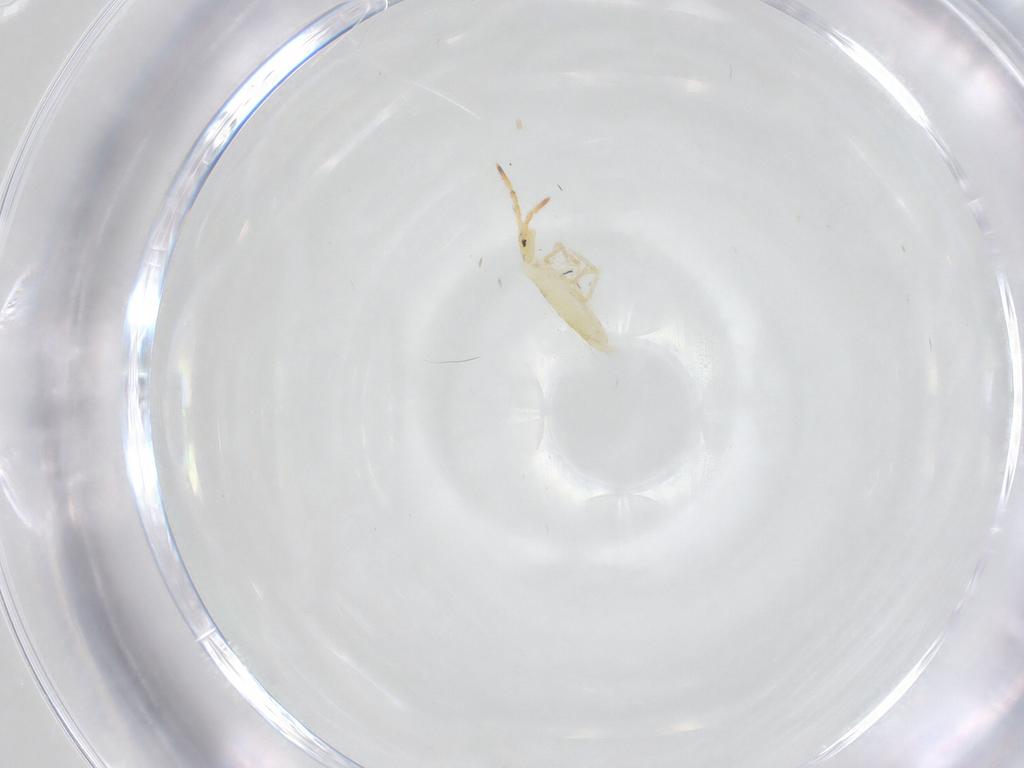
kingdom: Animalia
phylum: Arthropoda
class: Collembola
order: Entomobryomorpha
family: Entomobryidae
